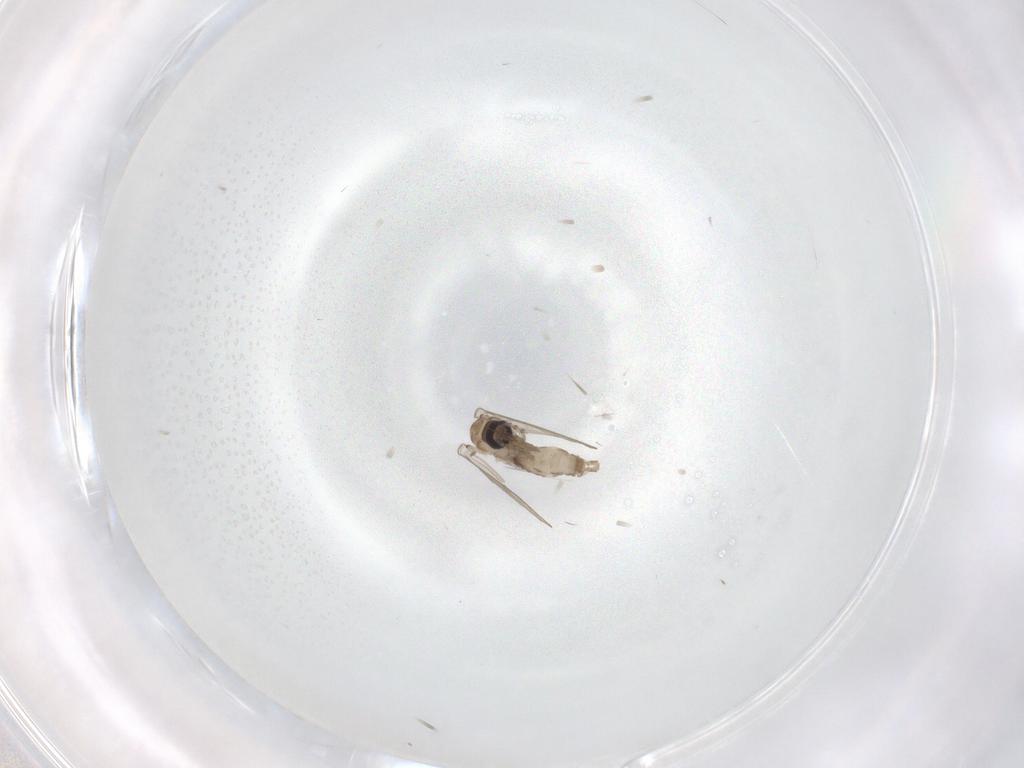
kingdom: Animalia
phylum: Arthropoda
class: Insecta
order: Diptera
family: Psychodidae
